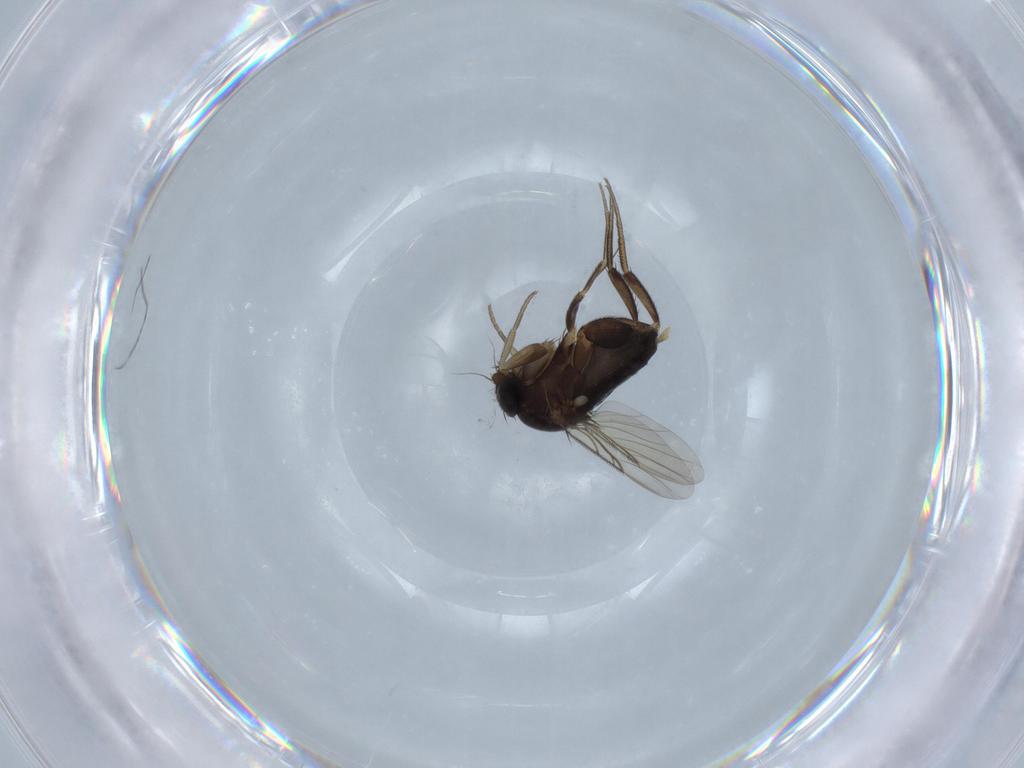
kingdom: Animalia
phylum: Arthropoda
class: Insecta
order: Diptera
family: Phoridae
